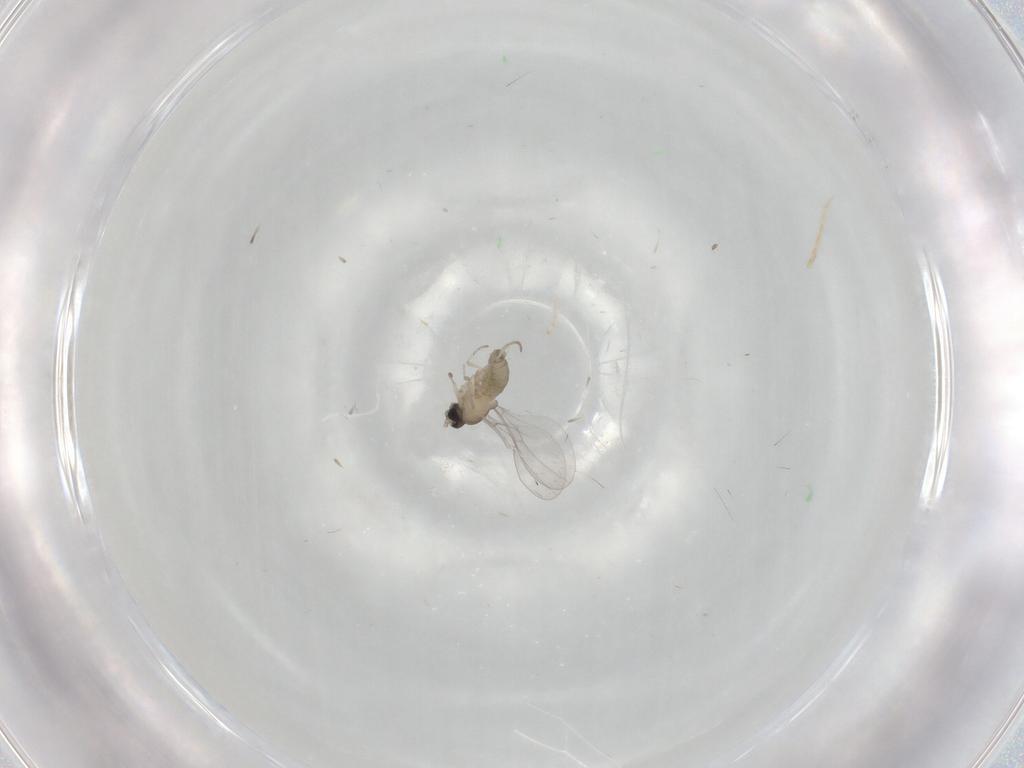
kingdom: Animalia
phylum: Arthropoda
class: Insecta
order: Diptera
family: Cecidomyiidae
